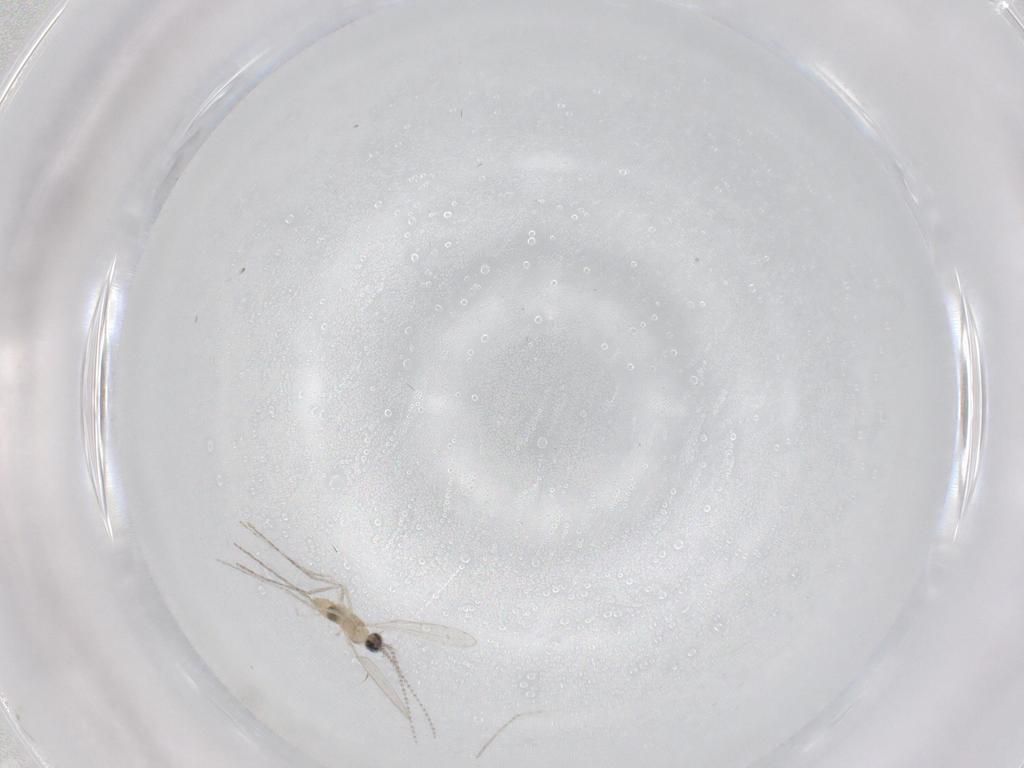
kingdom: Animalia
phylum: Arthropoda
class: Insecta
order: Diptera
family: Cecidomyiidae
